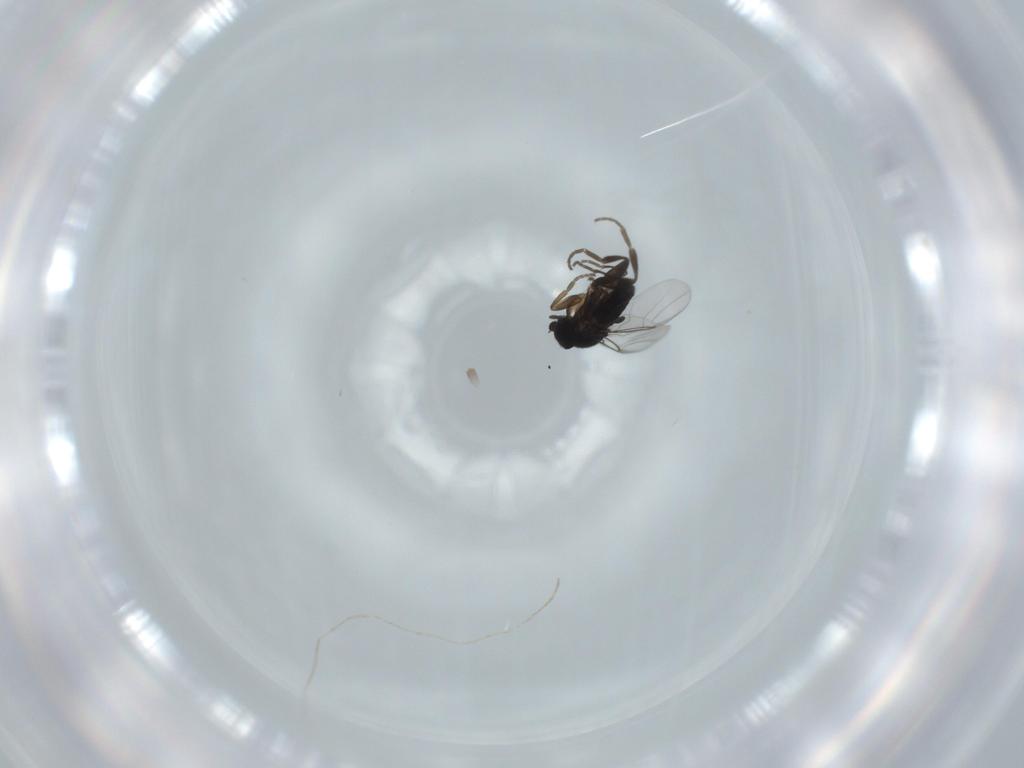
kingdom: Animalia
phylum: Arthropoda
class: Insecta
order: Diptera
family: Phoridae
